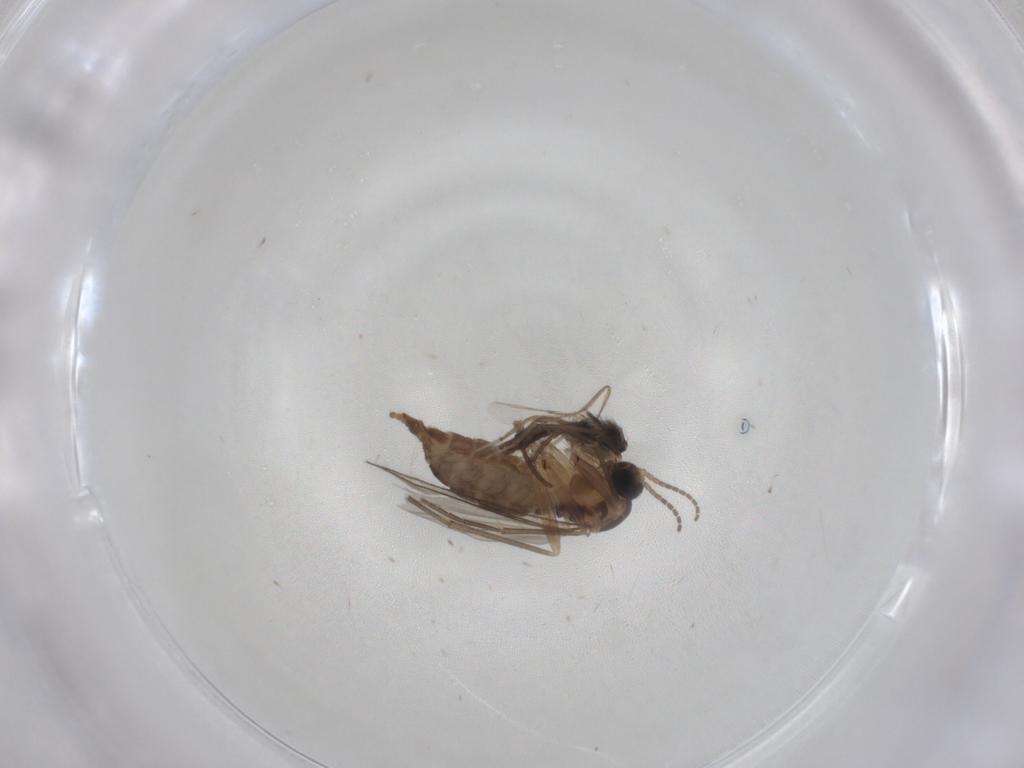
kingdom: Animalia
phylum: Arthropoda
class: Insecta
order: Diptera
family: Ceratopogonidae
